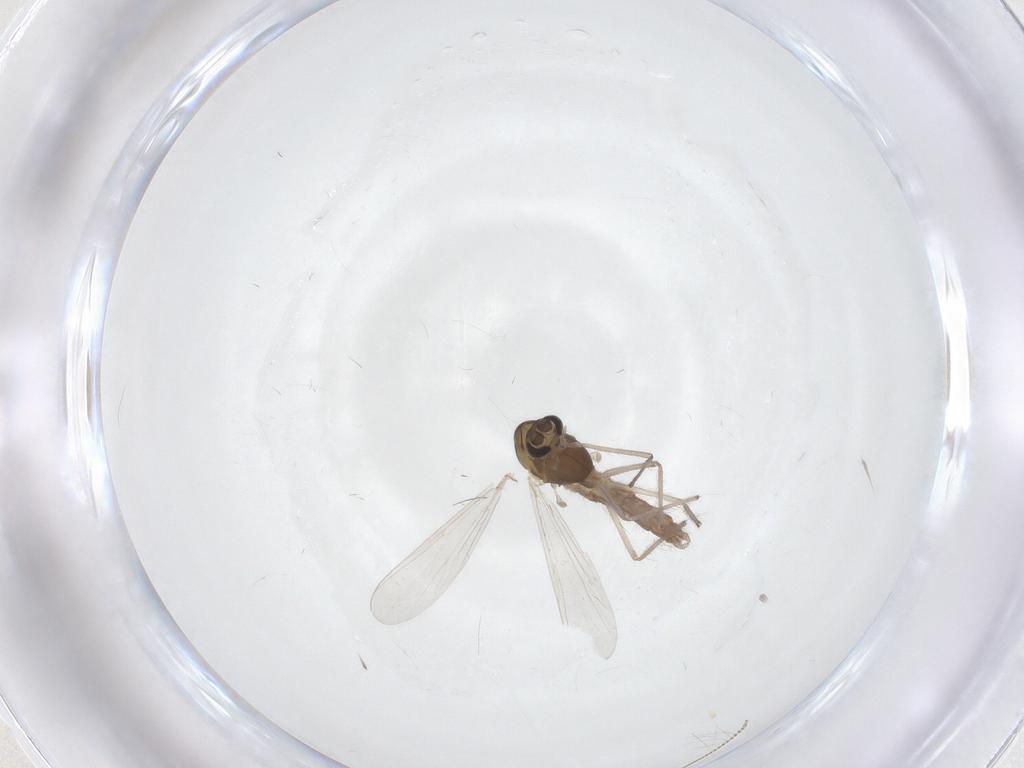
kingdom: Animalia
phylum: Arthropoda
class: Insecta
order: Diptera
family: Chironomidae
